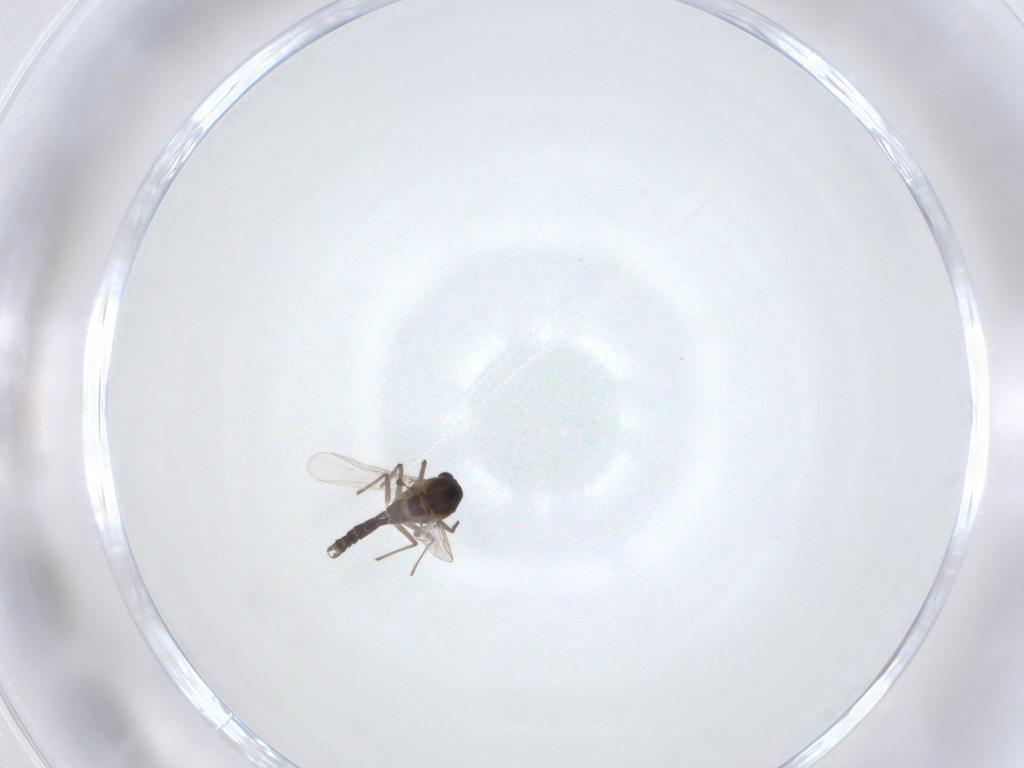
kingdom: Animalia
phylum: Arthropoda
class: Insecta
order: Diptera
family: Chironomidae
